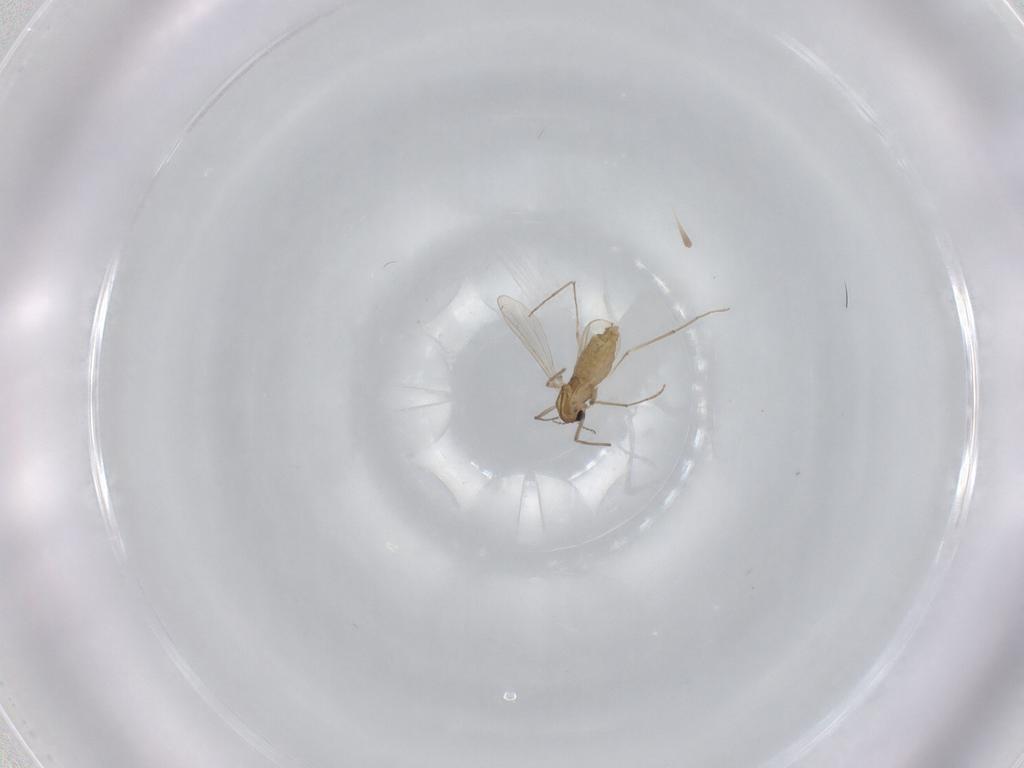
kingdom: Animalia
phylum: Arthropoda
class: Insecta
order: Diptera
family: Chironomidae
